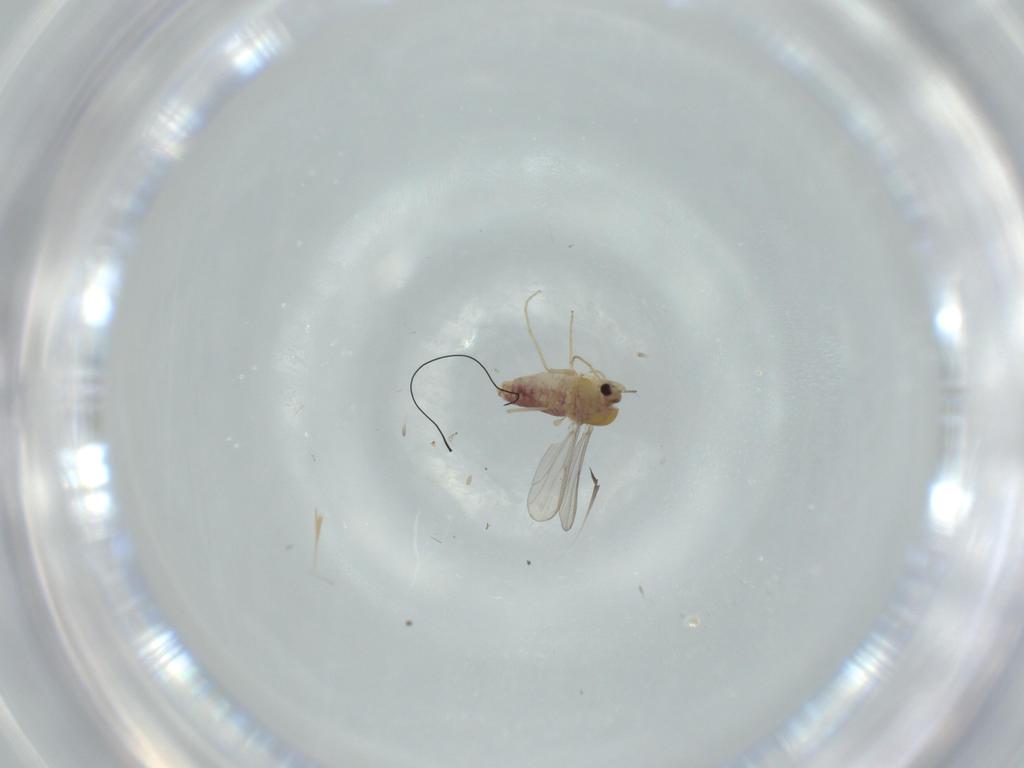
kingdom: Animalia
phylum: Arthropoda
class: Insecta
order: Diptera
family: Chironomidae
